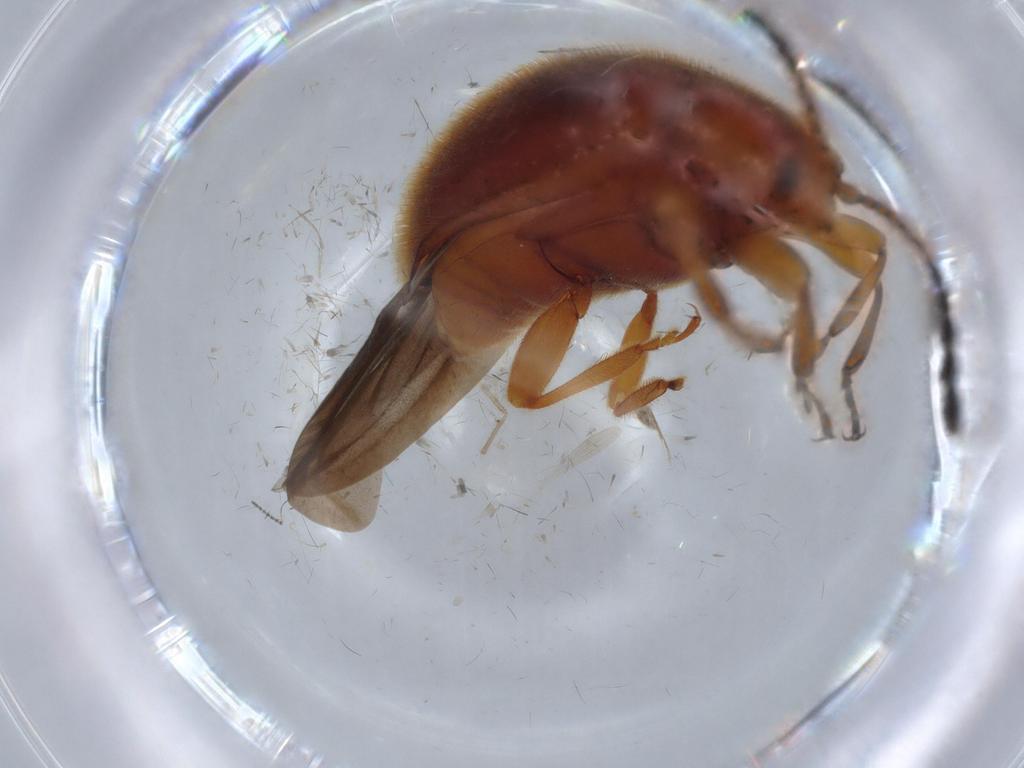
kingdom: Animalia
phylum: Arthropoda
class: Insecta
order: Coleoptera
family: Endomychidae
